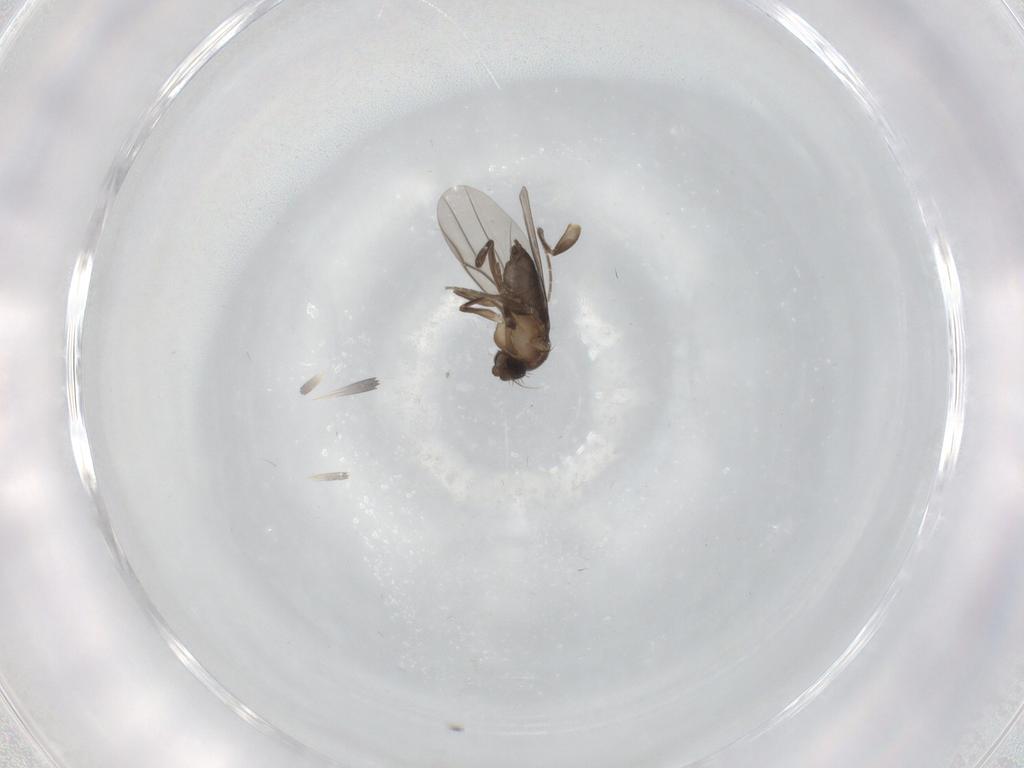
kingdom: Animalia
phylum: Arthropoda
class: Insecta
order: Diptera
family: Phoridae
